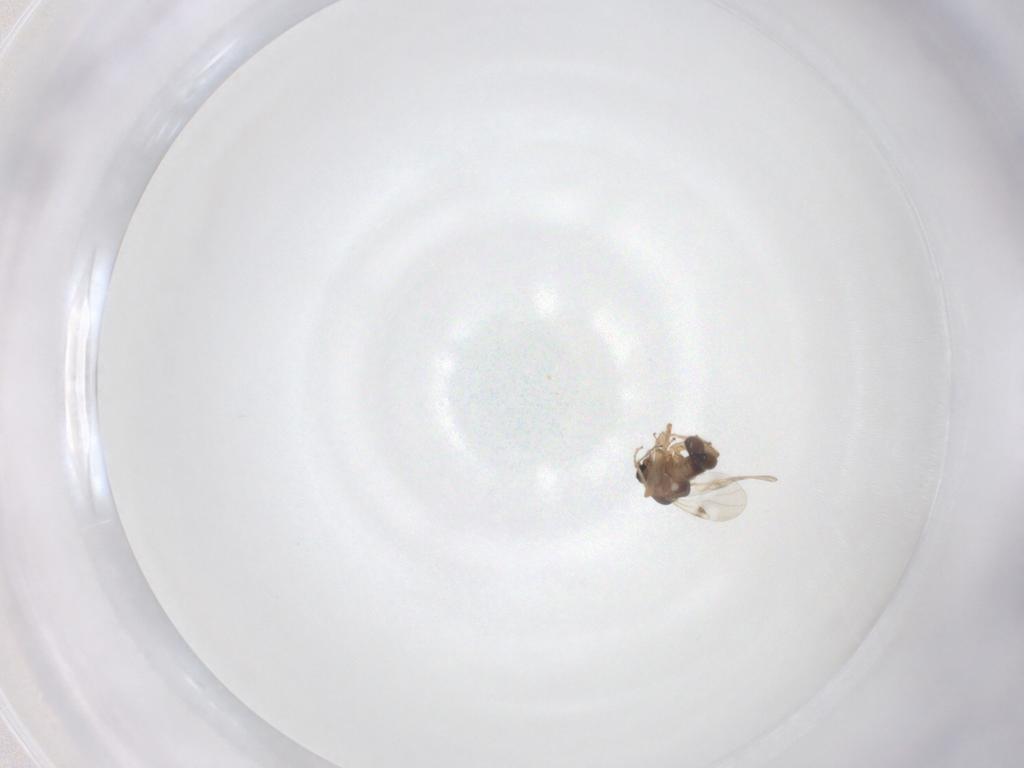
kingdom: Animalia
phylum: Arthropoda
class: Insecta
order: Diptera
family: Ceratopogonidae
